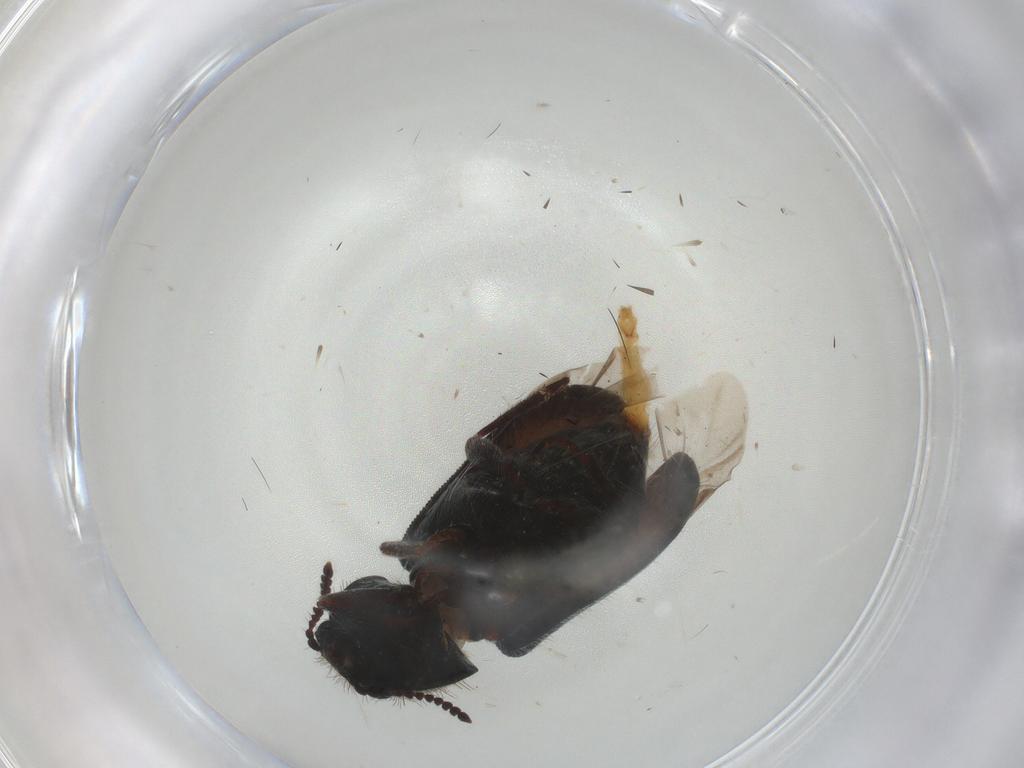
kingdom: Animalia
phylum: Arthropoda
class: Insecta
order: Coleoptera
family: Melyridae
